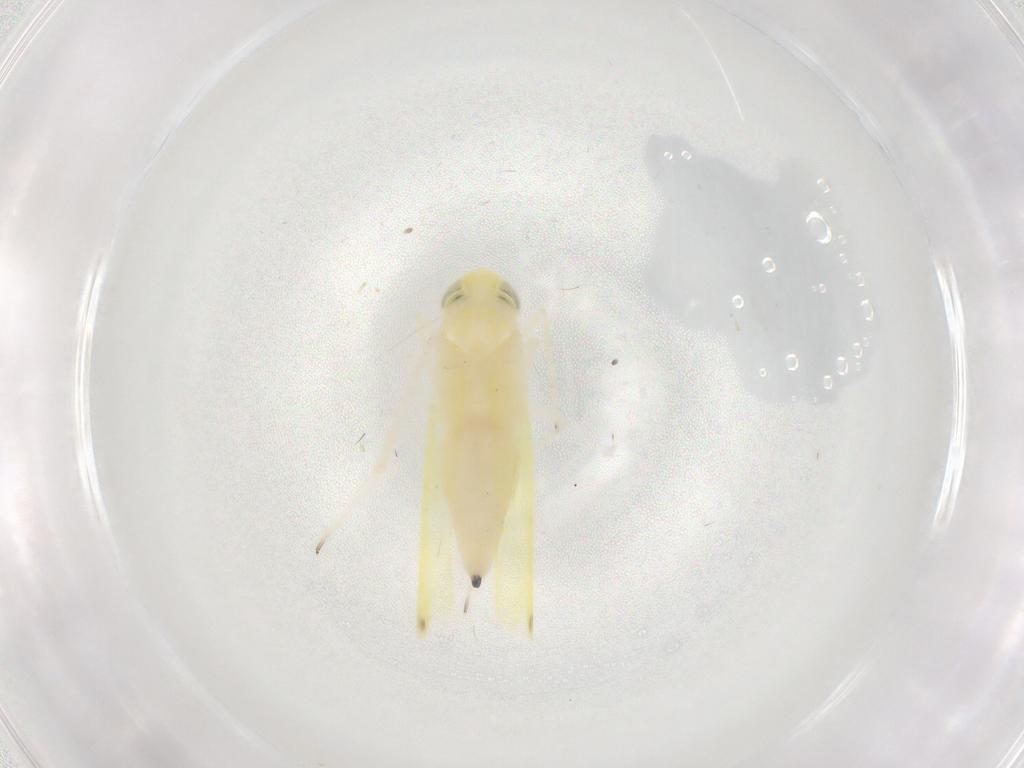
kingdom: Animalia
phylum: Arthropoda
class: Insecta
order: Hemiptera
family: Cicadellidae
